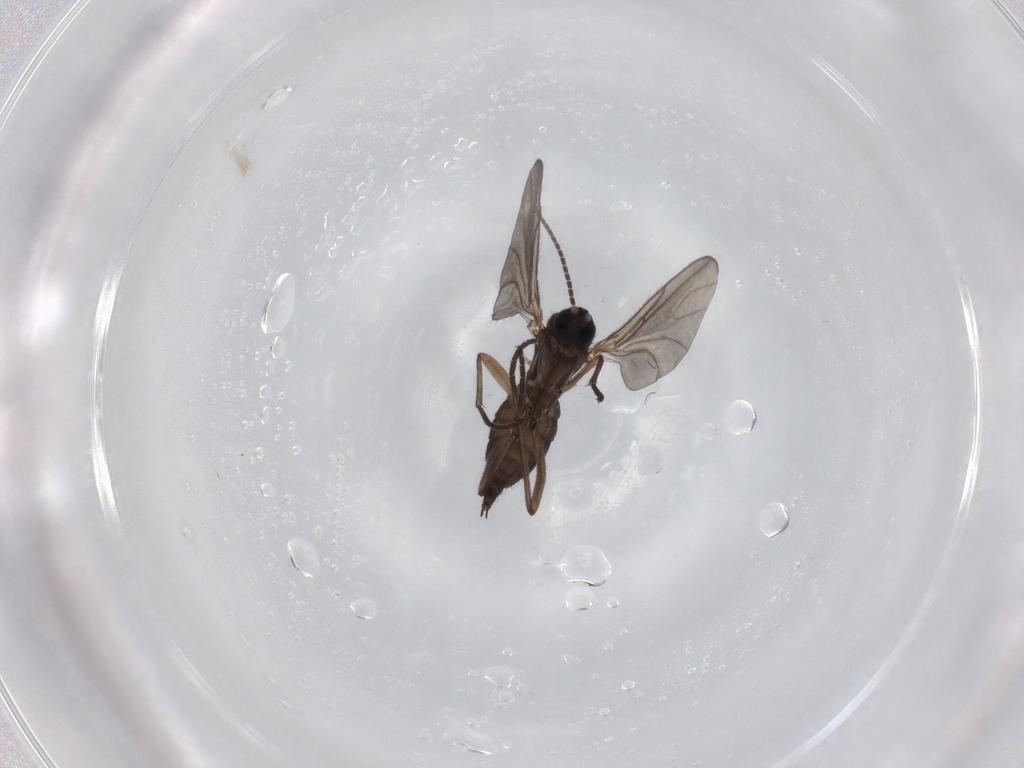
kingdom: Animalia
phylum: Arthropoda
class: Insecta
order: Diptera
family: Sciaridae
